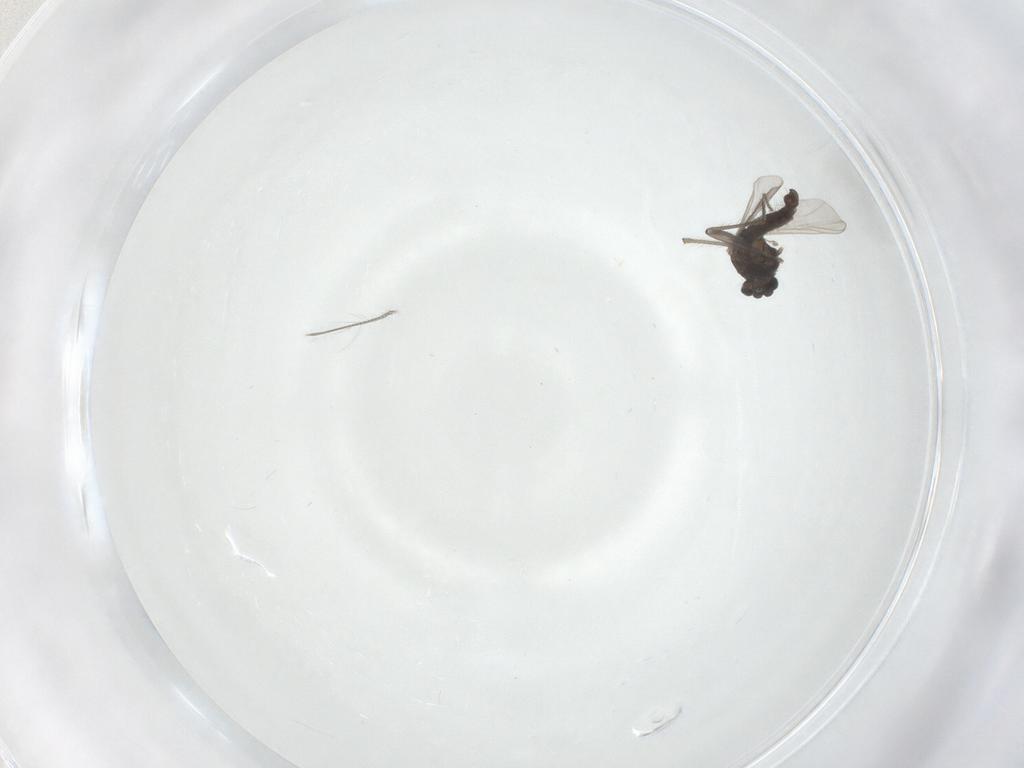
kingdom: Animalia
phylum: Arthropoda
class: Insecta
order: Diptera
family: Chironomidae
